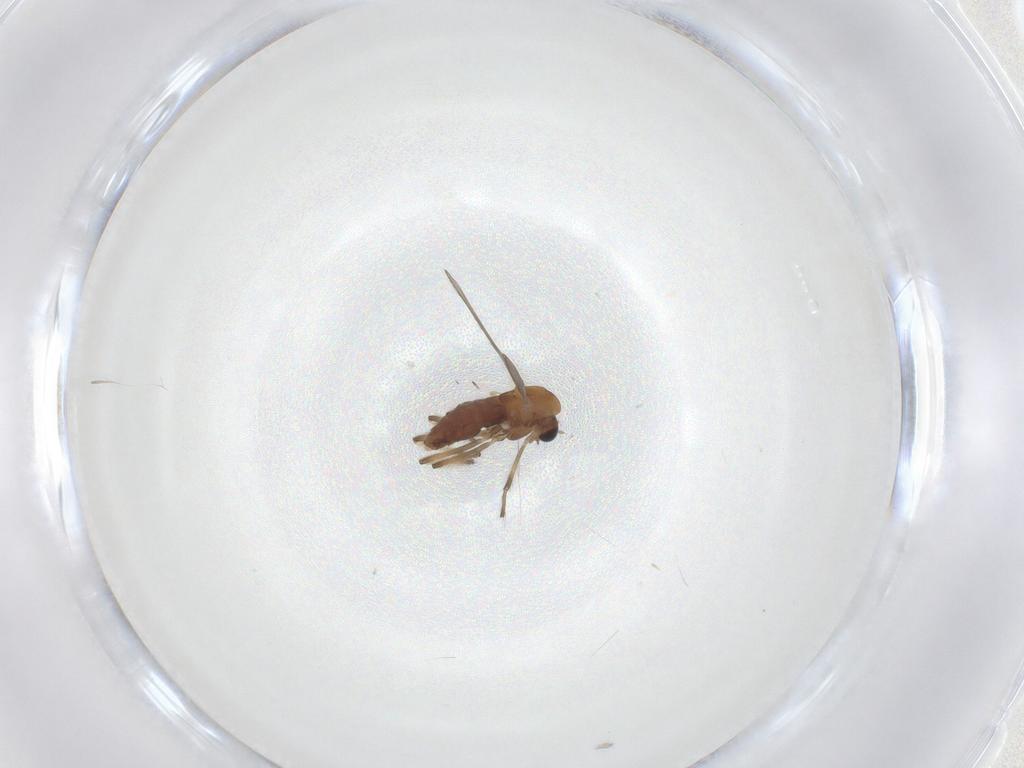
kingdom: Animalia
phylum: Arthropoda
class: Insecta
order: Diptera
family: Chironomidae
